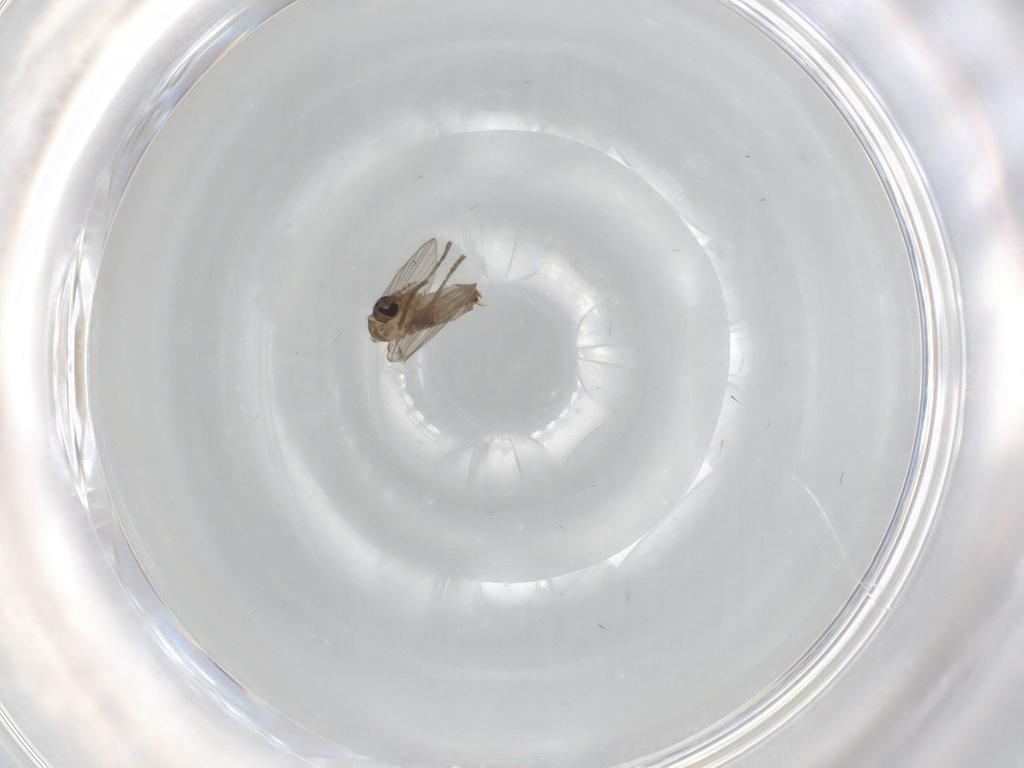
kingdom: Animalia
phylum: Arthropoda
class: Insecta
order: Diptera
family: Psychodidae
